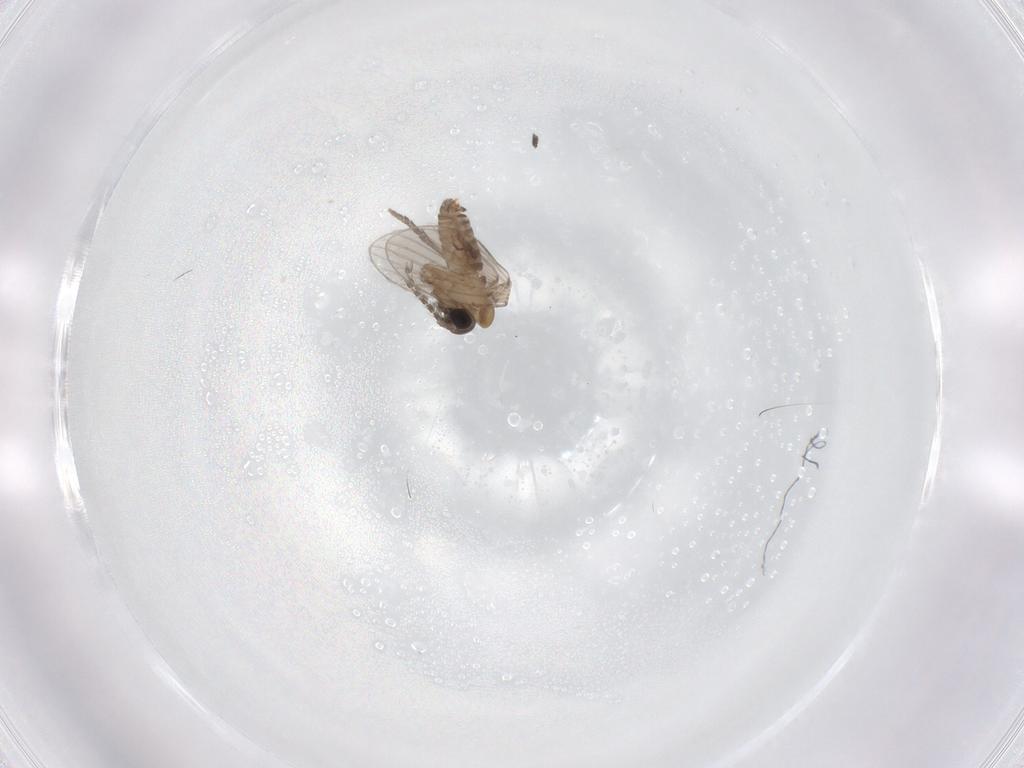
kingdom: Animalia
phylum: Arthropoda
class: Insecta
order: Diptera
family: Chironomidae
